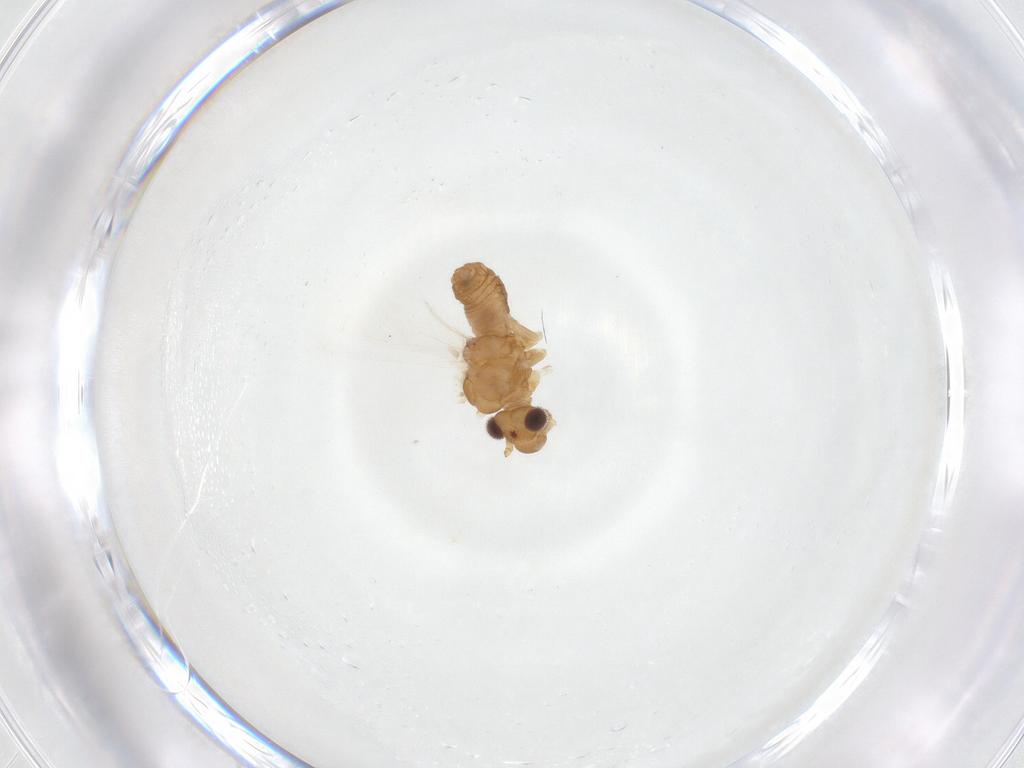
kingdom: Animalia
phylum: Arthropoda
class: Insecta
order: Psocodea
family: Philotarsidae
